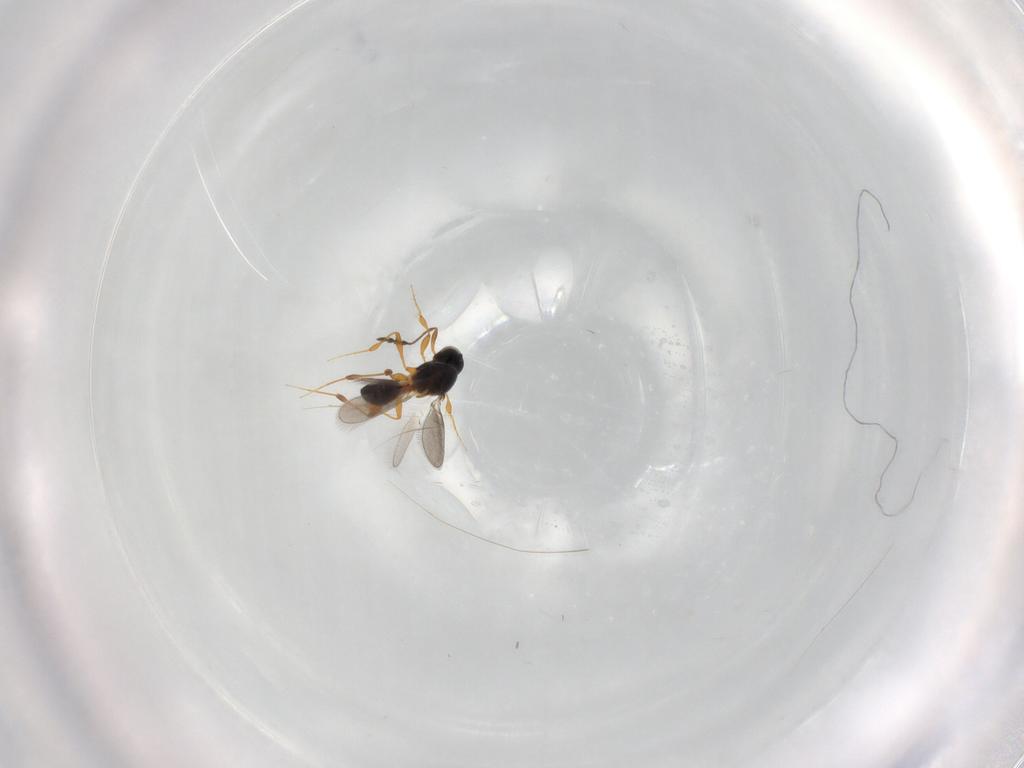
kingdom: Animalia
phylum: Arthropoda
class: Insecta
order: Hymenoptera
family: Platygastridae
